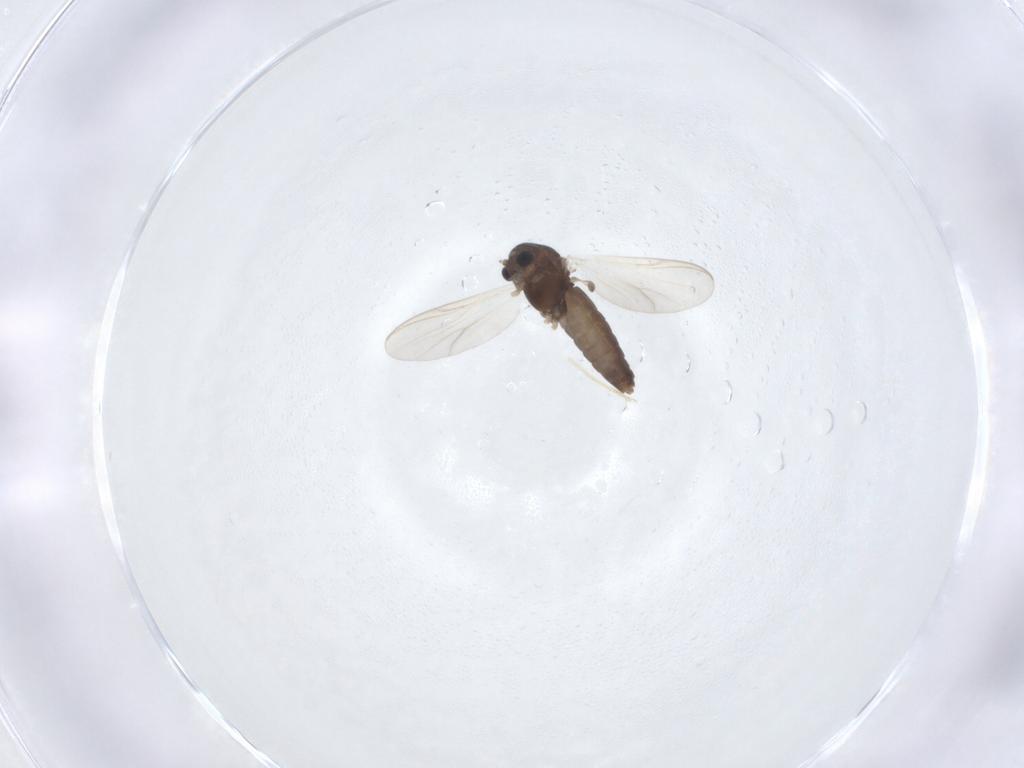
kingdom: Animalia
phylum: Arthropoda
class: Insecta
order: Diptera
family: Chironomidae
